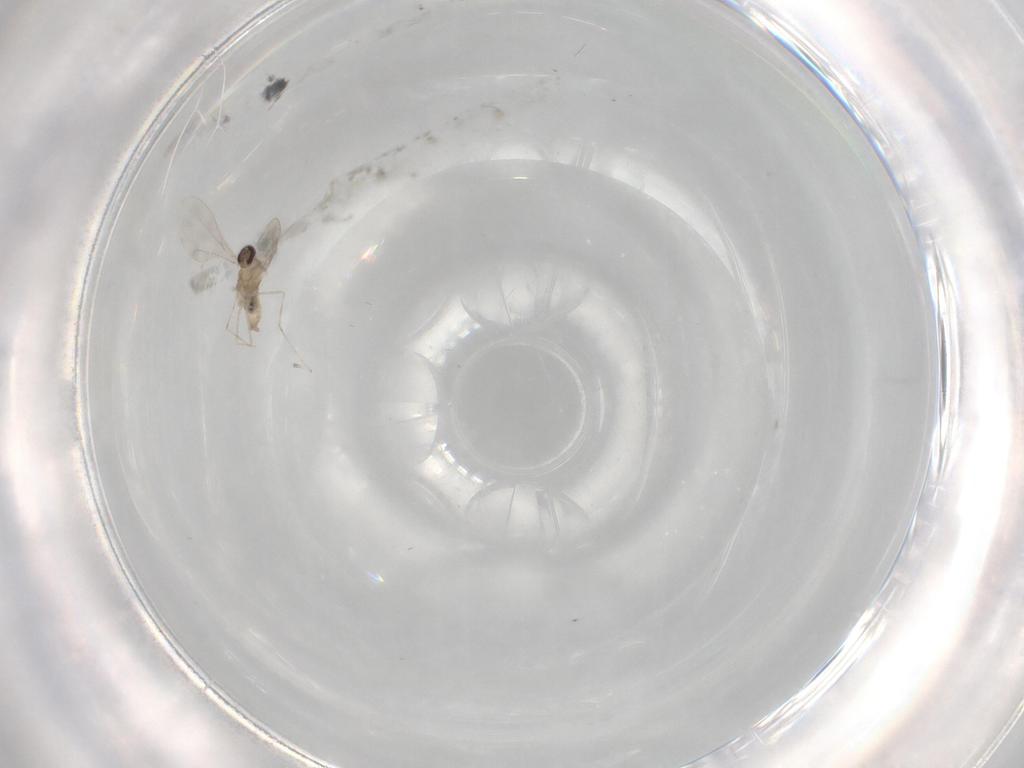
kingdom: Animalia
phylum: Arthropoda
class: Insecta
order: Diptera
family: Cecidomyiidae
